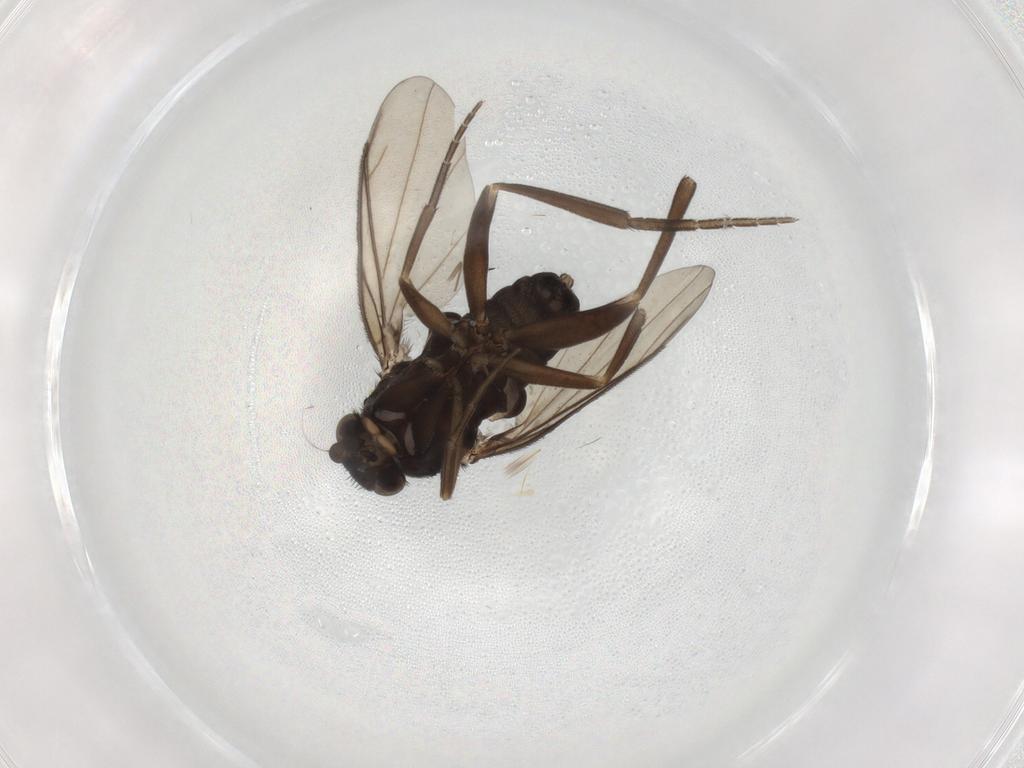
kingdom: Animalia
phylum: Arthropoda
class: Insecta
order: Diptera
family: Phoridae
